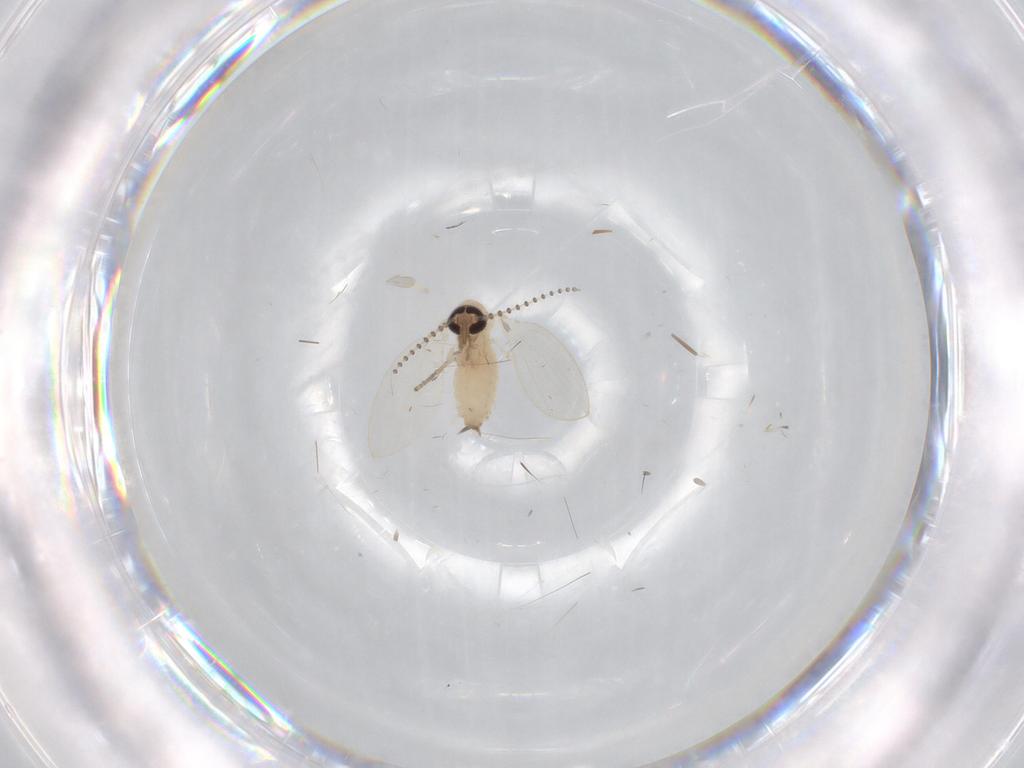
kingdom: Animalia
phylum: Arthropoda
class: Insecta
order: Diptera
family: Psychodidae
